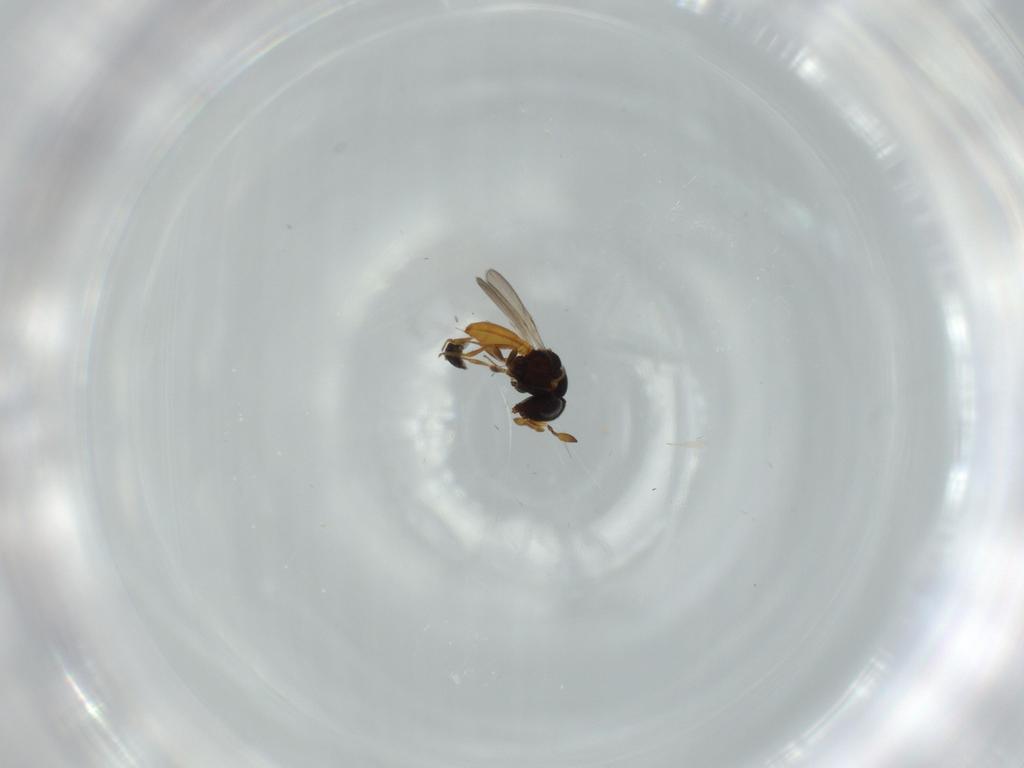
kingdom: Animalia
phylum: Arthropoda
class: Insecta
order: Hymenoptera
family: Scelionidae
